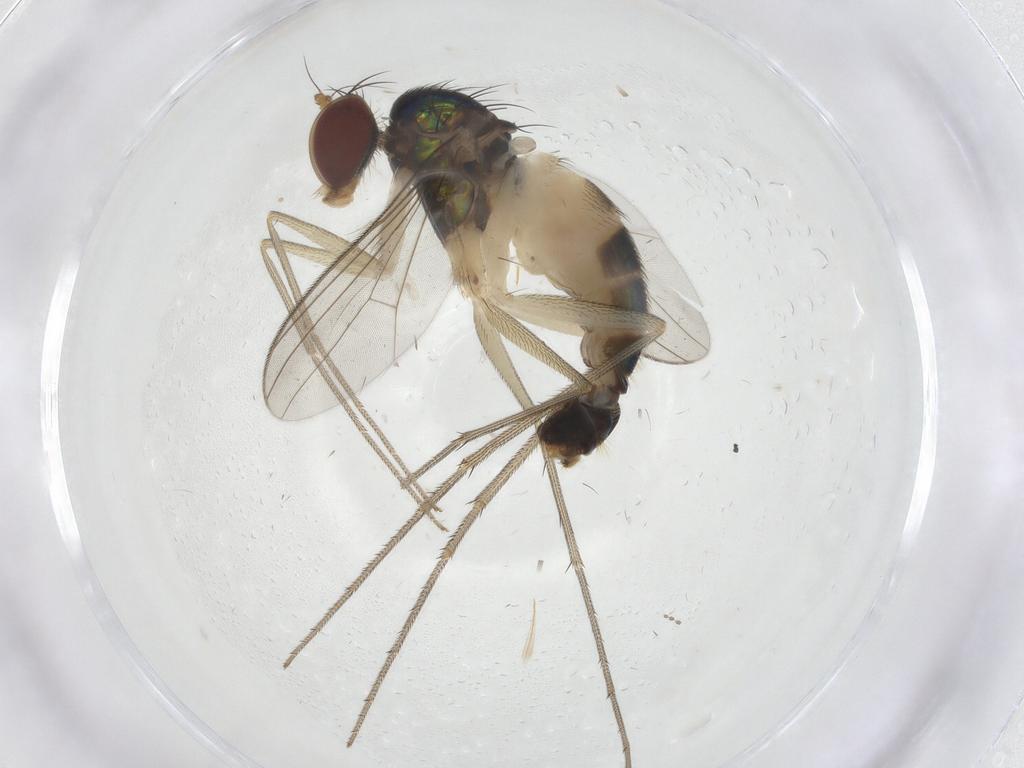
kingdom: Animalia
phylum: Arthropoda
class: Insecta
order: Diptera
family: Dolichopodidae
